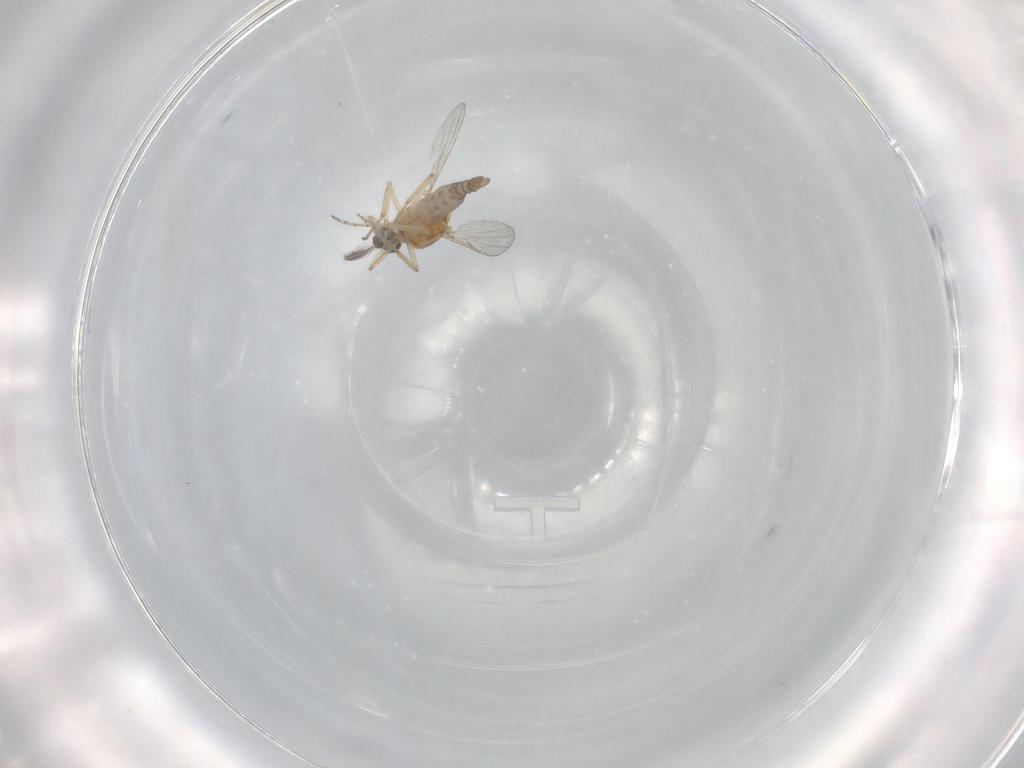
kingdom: Animalia
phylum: Arthropoda
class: Insecta
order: Diptera
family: Ceratopogonidae
